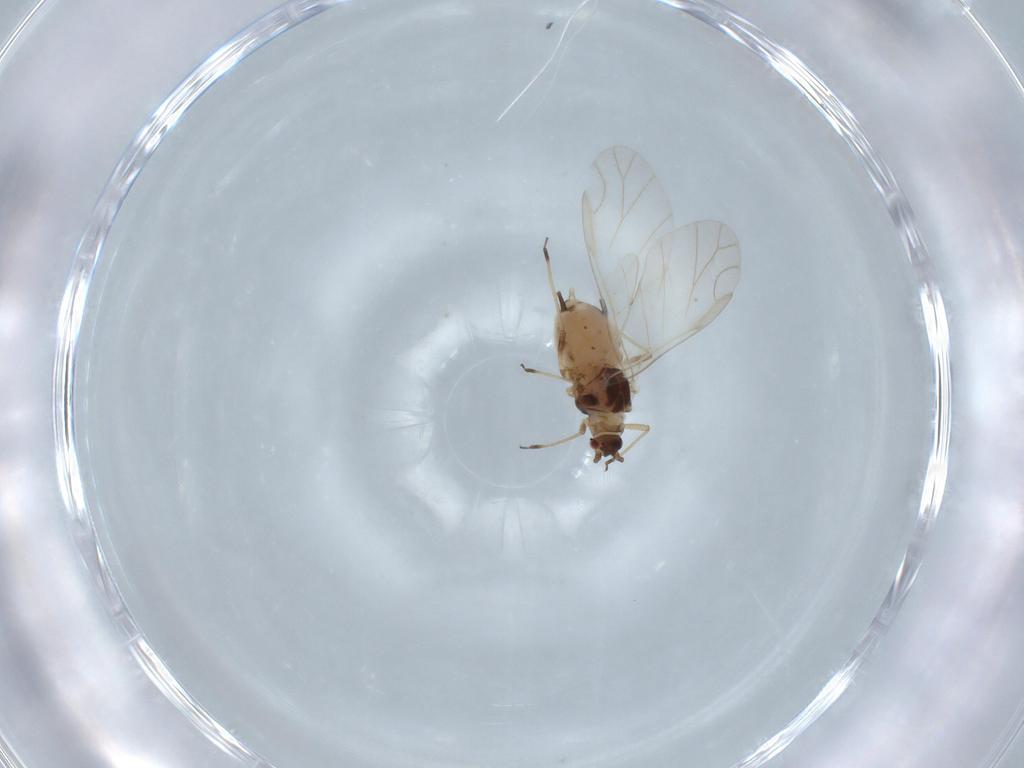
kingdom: Animalia
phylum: Arthropoda
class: Insecta
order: Hemiptera
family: Aphididae
